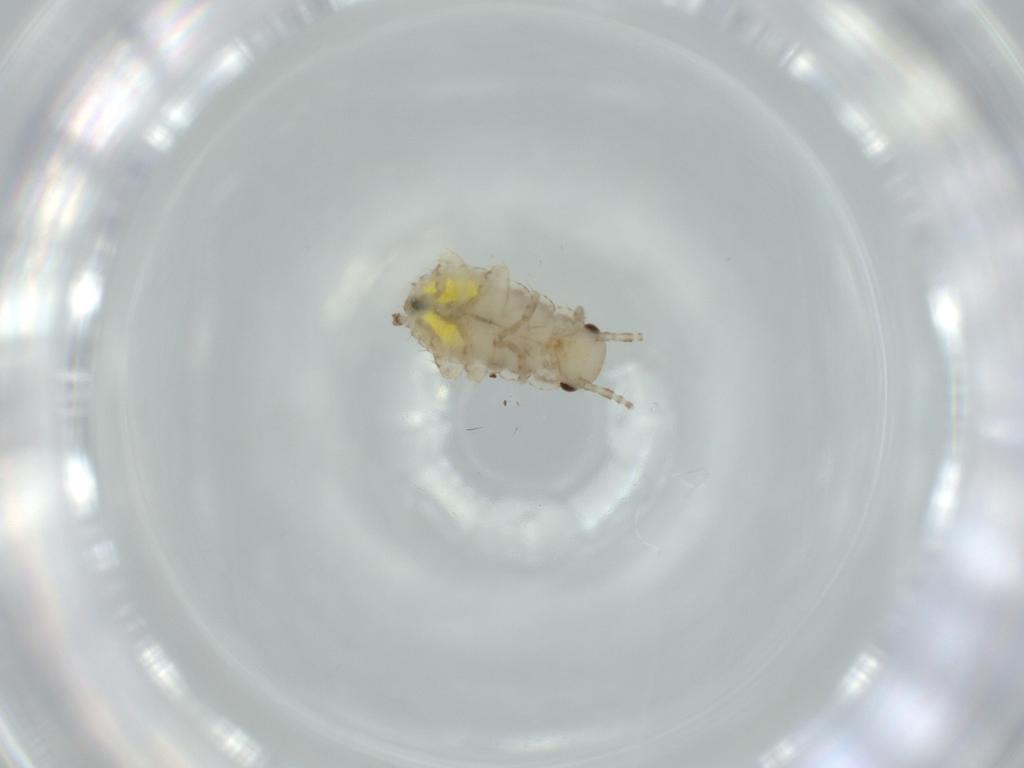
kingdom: Animalia
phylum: Arthropoda
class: Insecta
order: Blattodea
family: Ectobiidae
